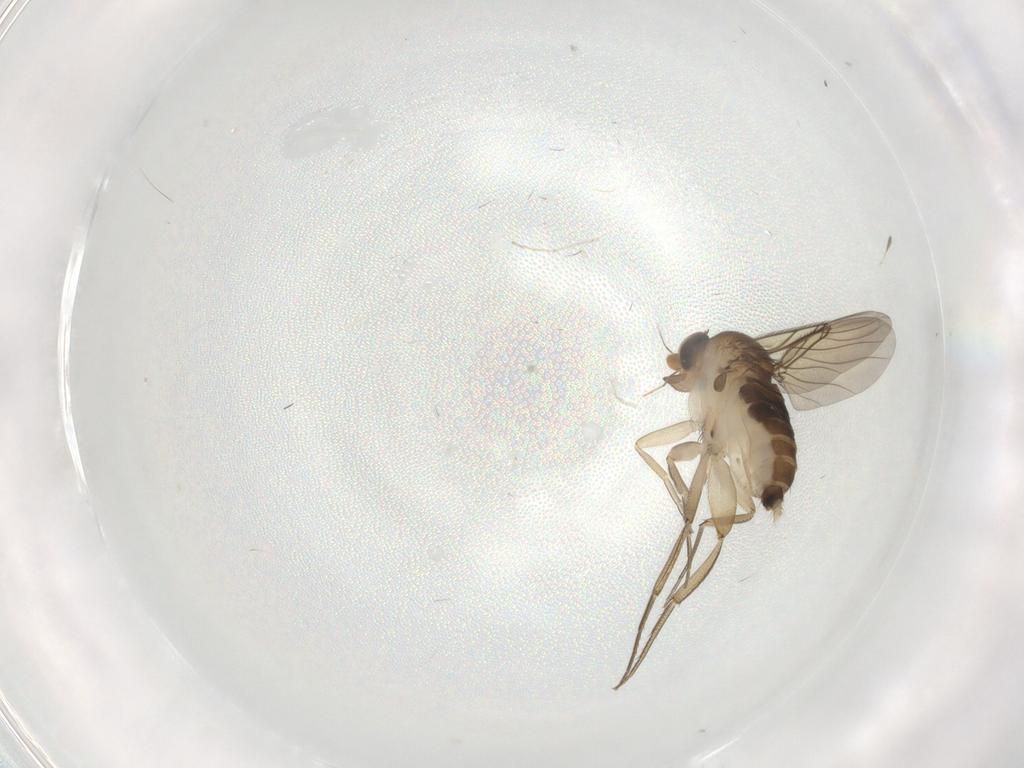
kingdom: Animalia
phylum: Arthropoda
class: Insecta
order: Diptera
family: Phoridae
